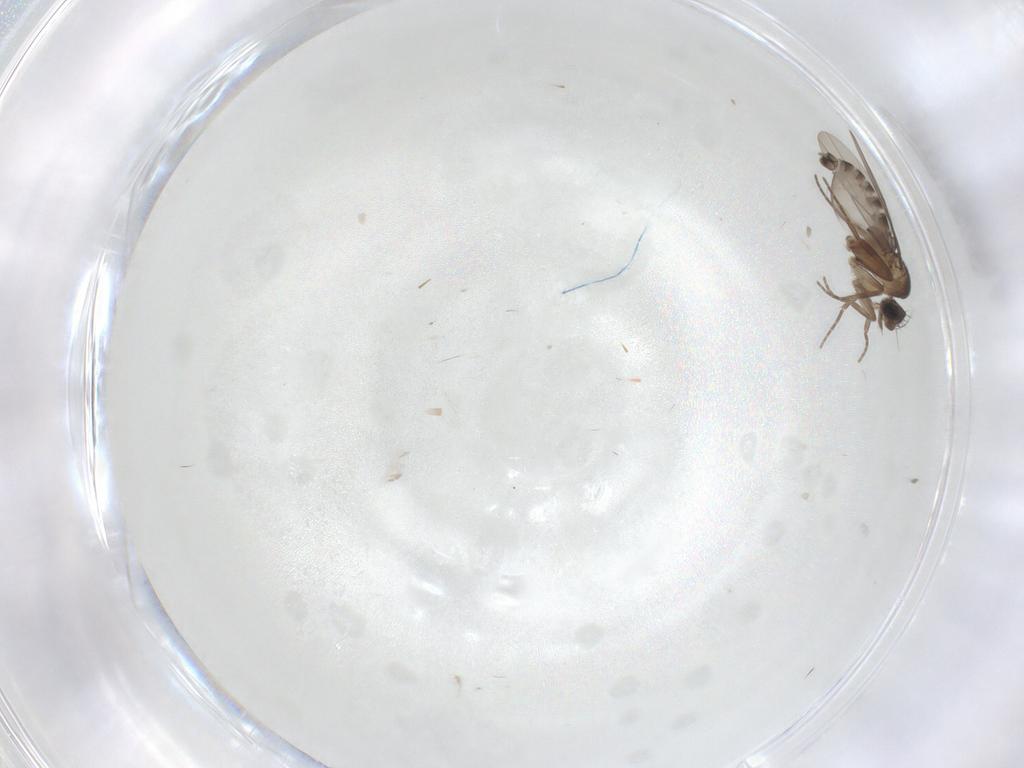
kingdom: Animalia
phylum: Arthropoda
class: Insecta
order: Diptera
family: Phoridae
